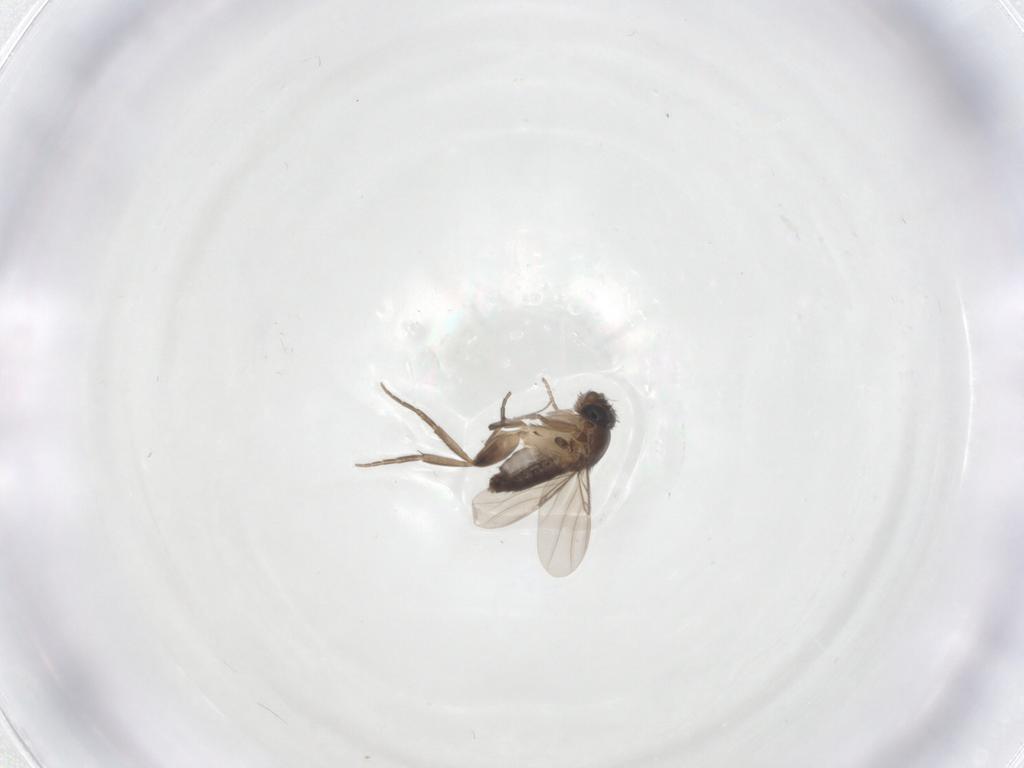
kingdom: Animalia
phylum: Arthropoda
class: Insecta
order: Diptera
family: Phoridae
